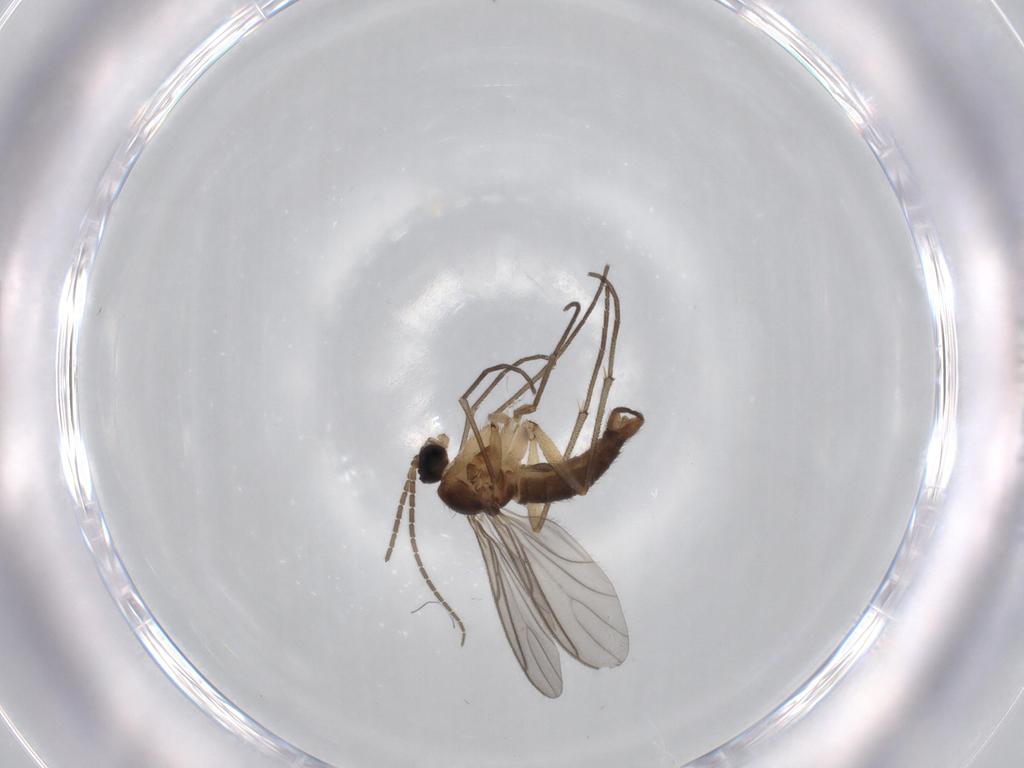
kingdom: Animalia
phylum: Arthropoda
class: Insecta
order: Diptera
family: Sciaridae
